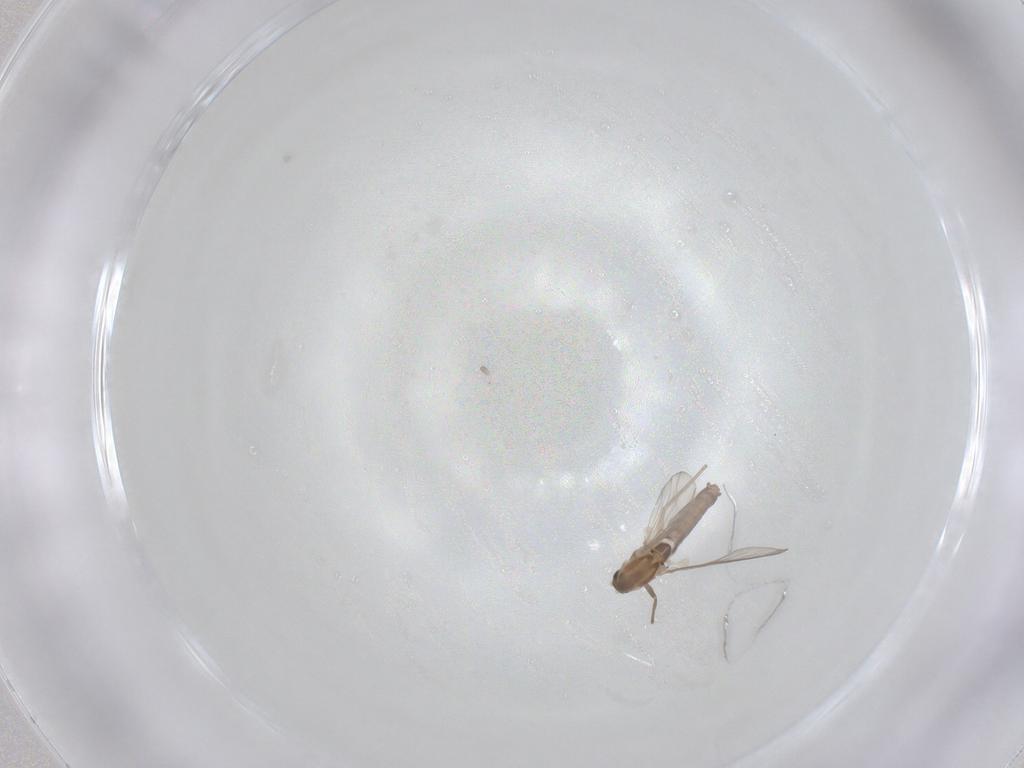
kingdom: Animalia
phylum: Arthropoda
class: Insecta
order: Diptera
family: Chironomidae
